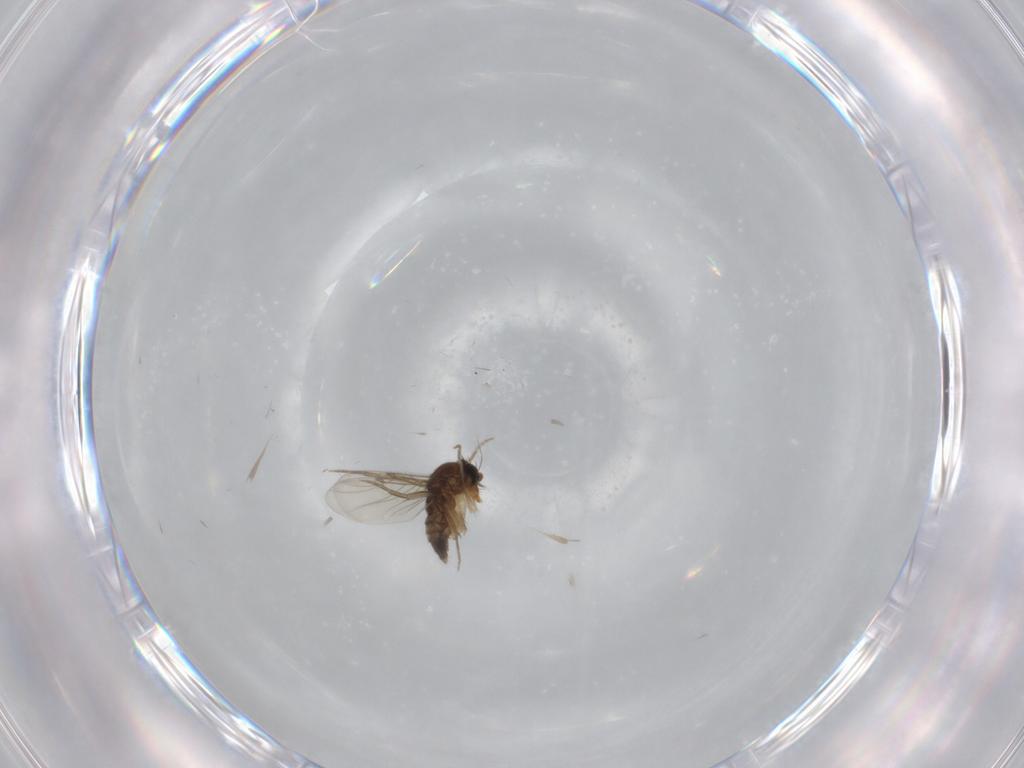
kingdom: Animalia
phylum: Arthropoda
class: Insecta
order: Diptera
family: Phoridae
